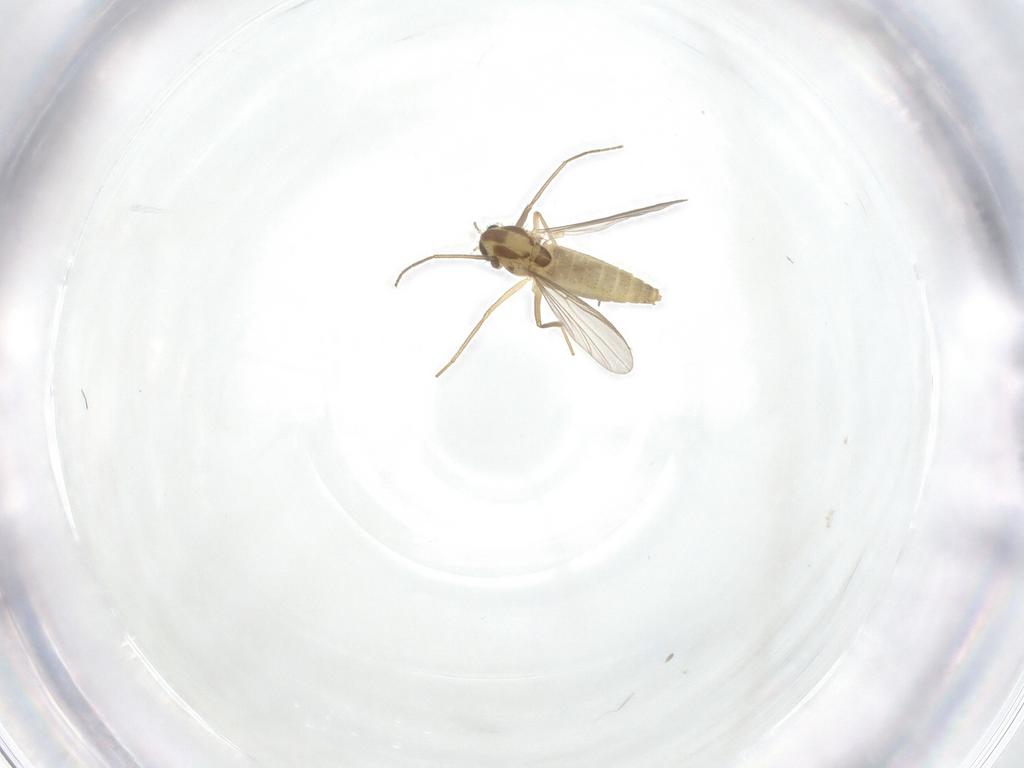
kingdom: Animalia
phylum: Arthropoda
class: Insecta
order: Diptera
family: Chironomidae
